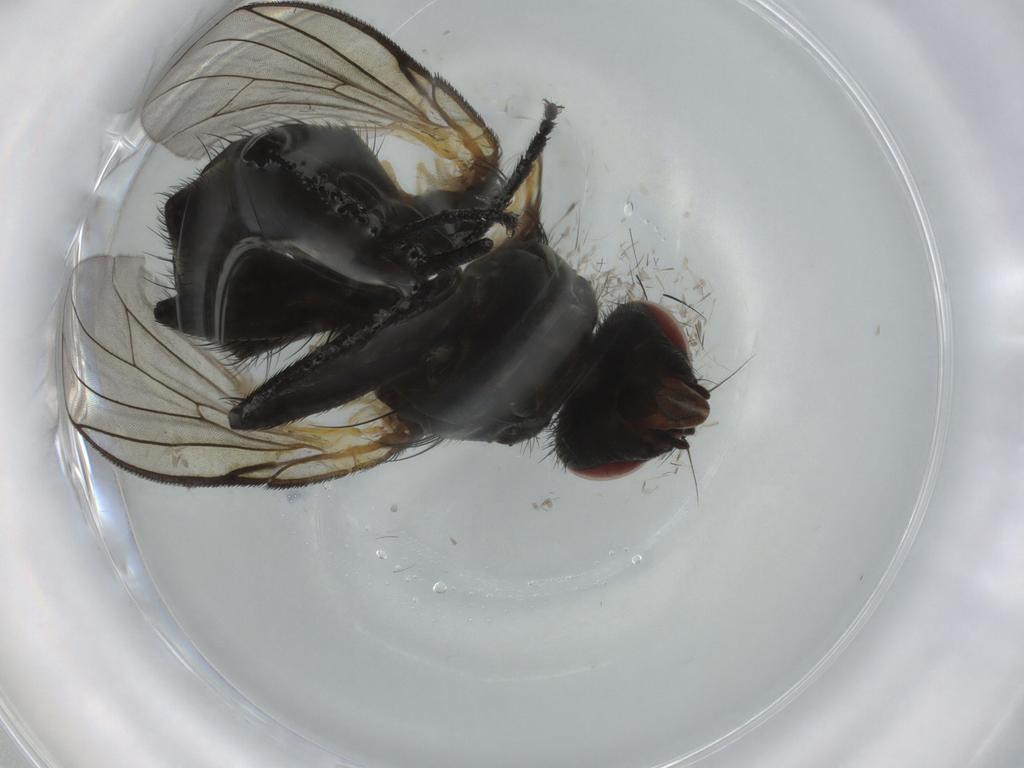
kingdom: Animalia
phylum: Arthropoda
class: Insecta
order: Diptera
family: Muscidae
